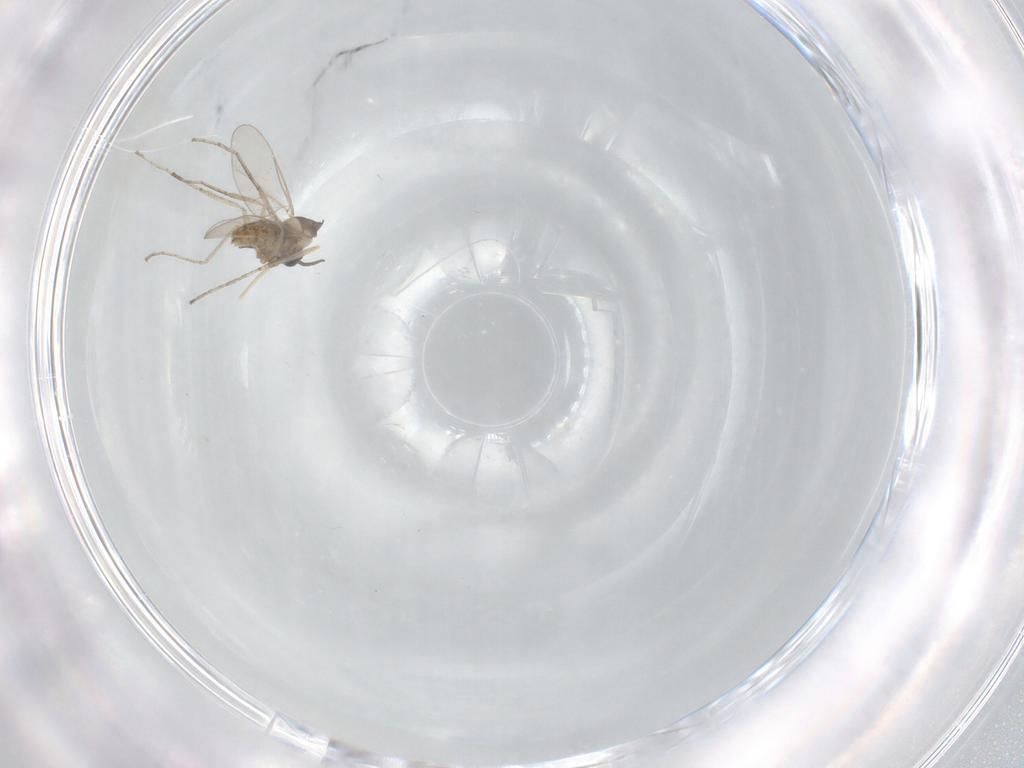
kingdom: Animalia
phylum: Arthropoda
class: Insecta
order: Diptera
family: Cecidomyiidae
